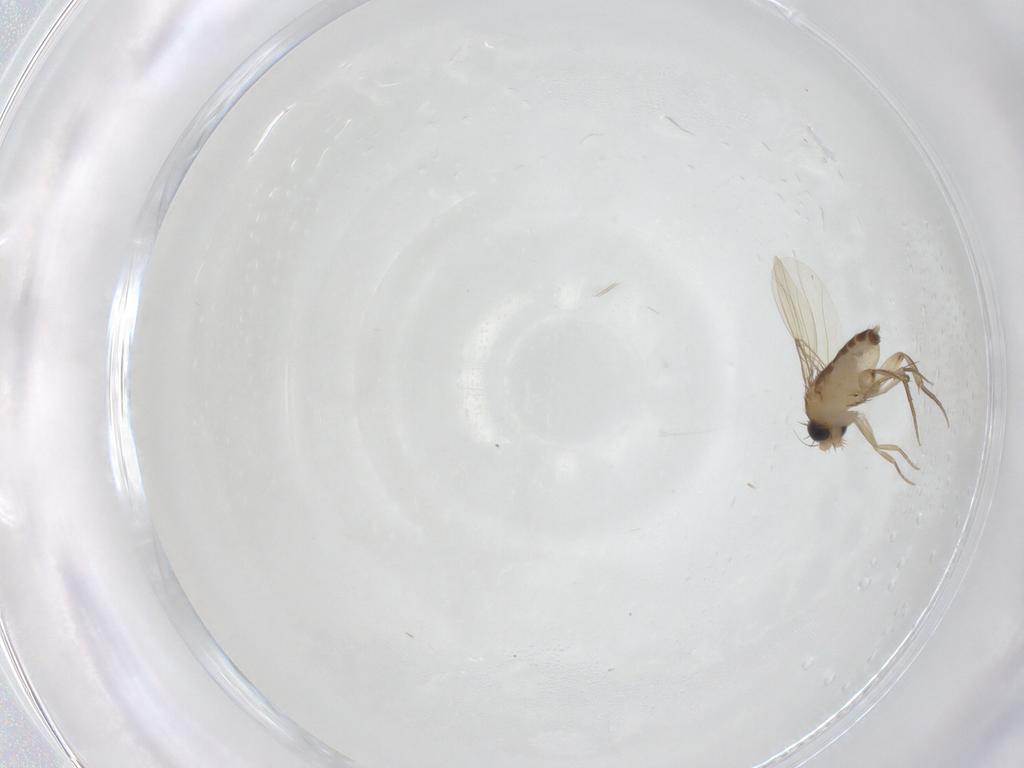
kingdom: Animalia
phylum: Arthropoda
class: Insecta
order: Diptera
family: Phoridae
